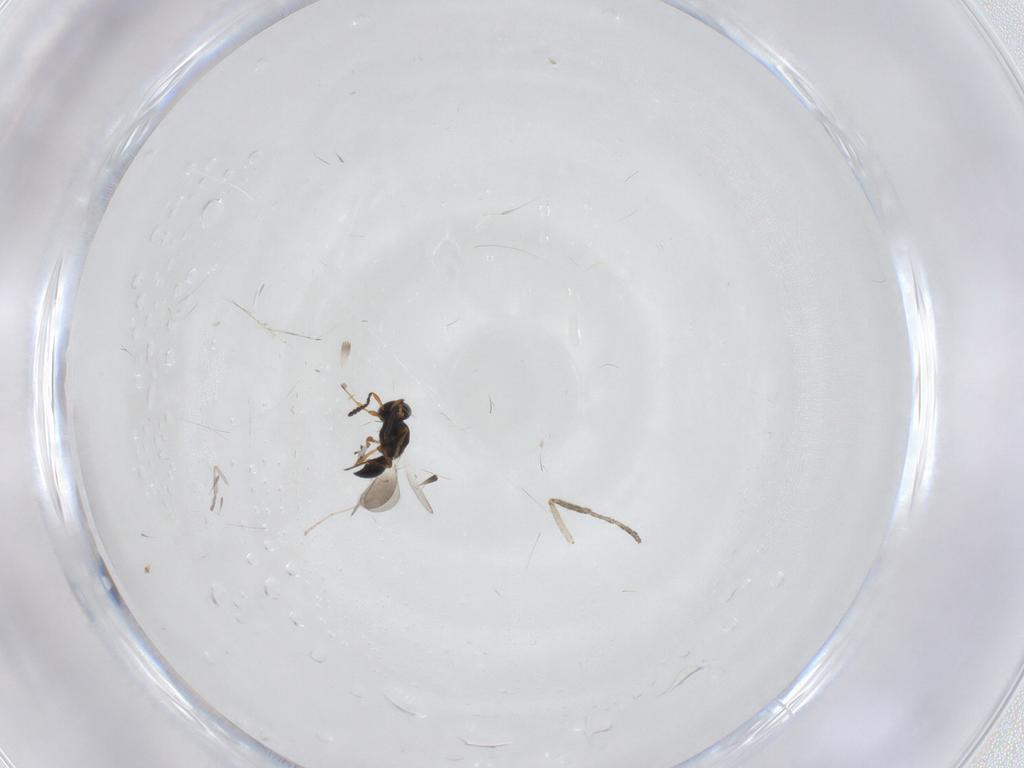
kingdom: Animalia
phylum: Arthropoda
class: Insecta
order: Hymenoptera
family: Platygastridae
